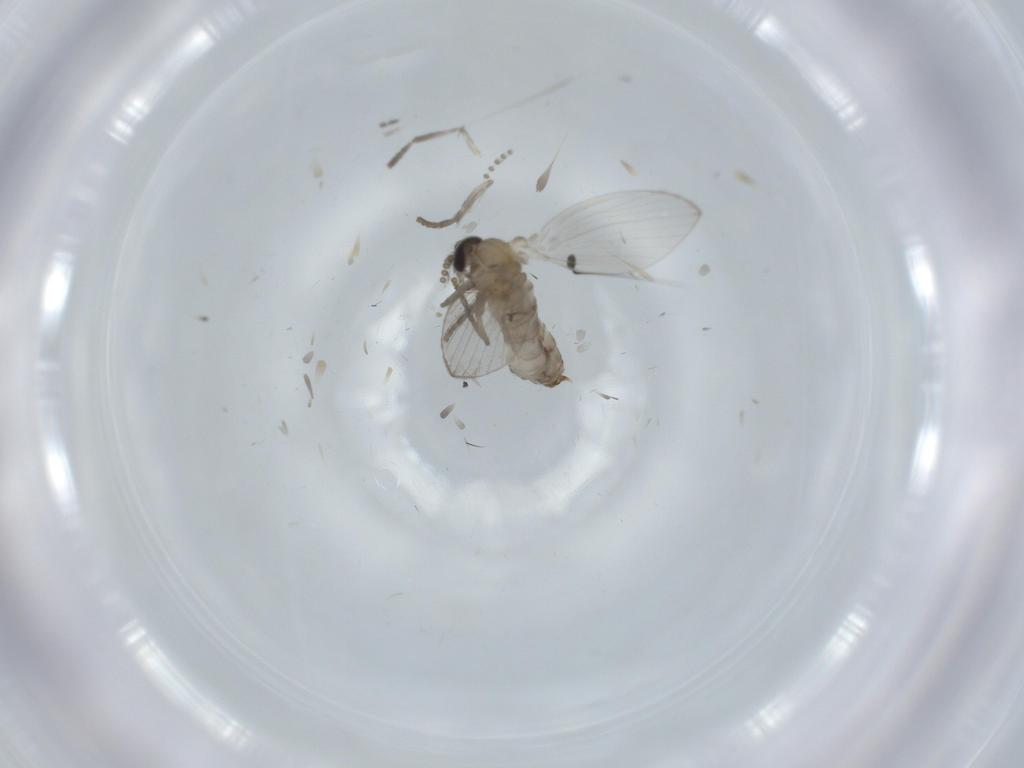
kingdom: Animalia
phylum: Arthropoda
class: Insecta
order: Diptera
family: Psychodidae
